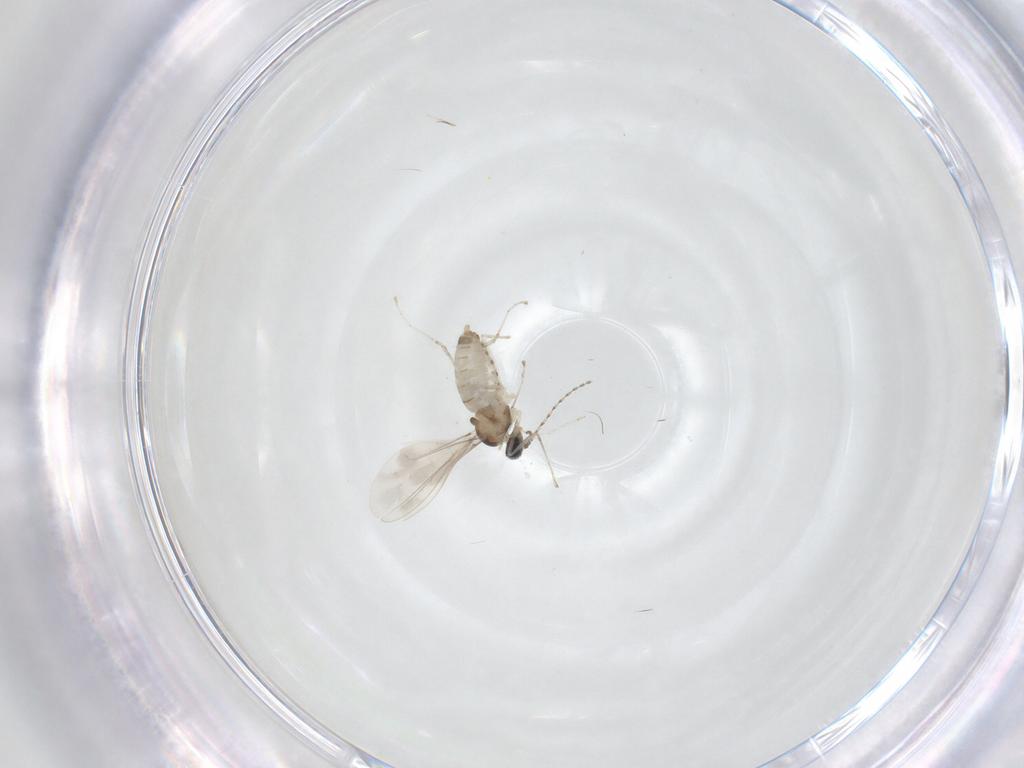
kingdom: Animalia
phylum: Arthropoda
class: Insecta
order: Diptera
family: Cecidomyiidae
